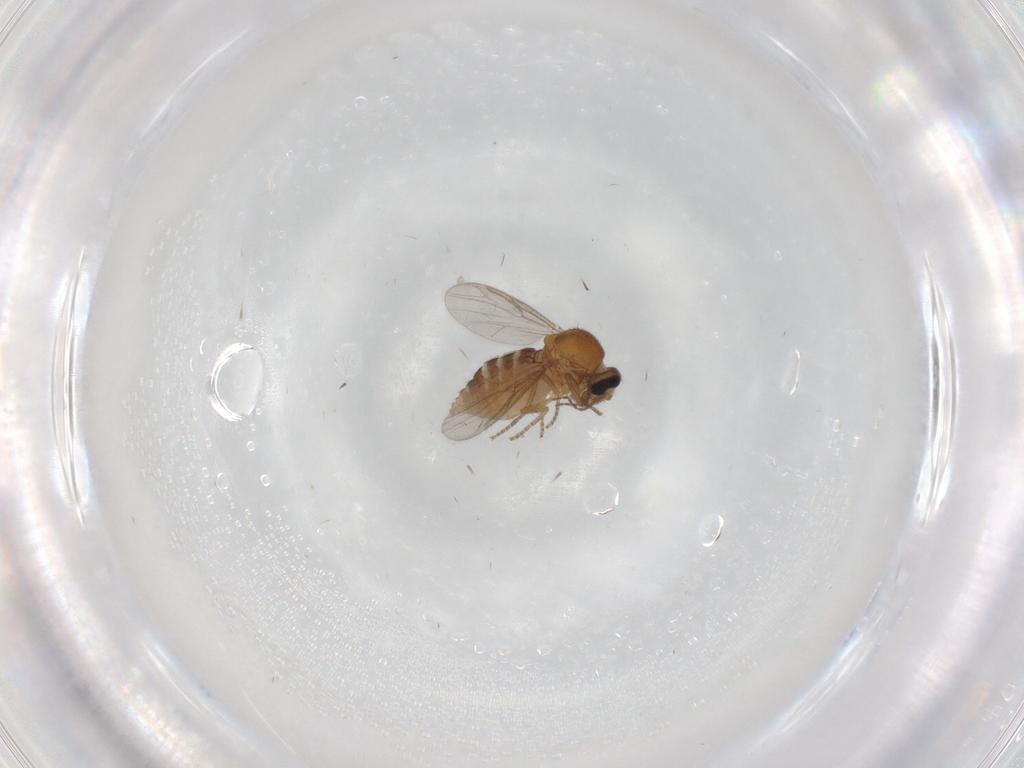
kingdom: Animalia
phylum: Arthropoda
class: Insecta
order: Diptera
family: Ceratopogonidae
